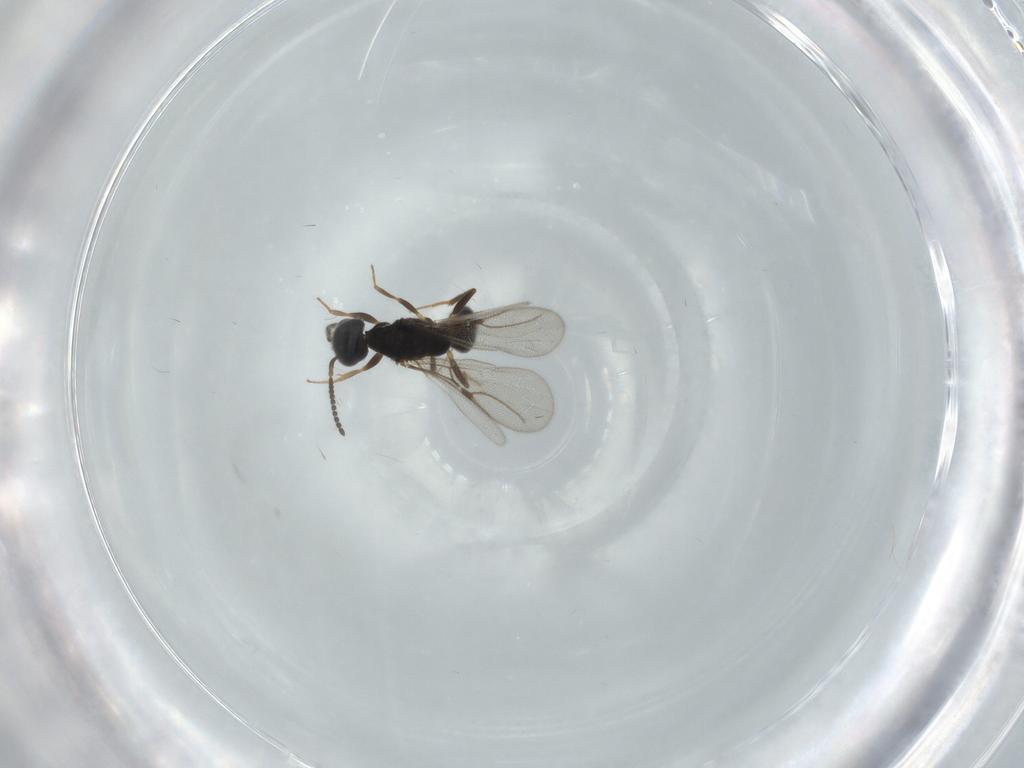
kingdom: Animalia
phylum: Arthropoda
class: Insecta
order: Hymenoptera
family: Bethylidae
